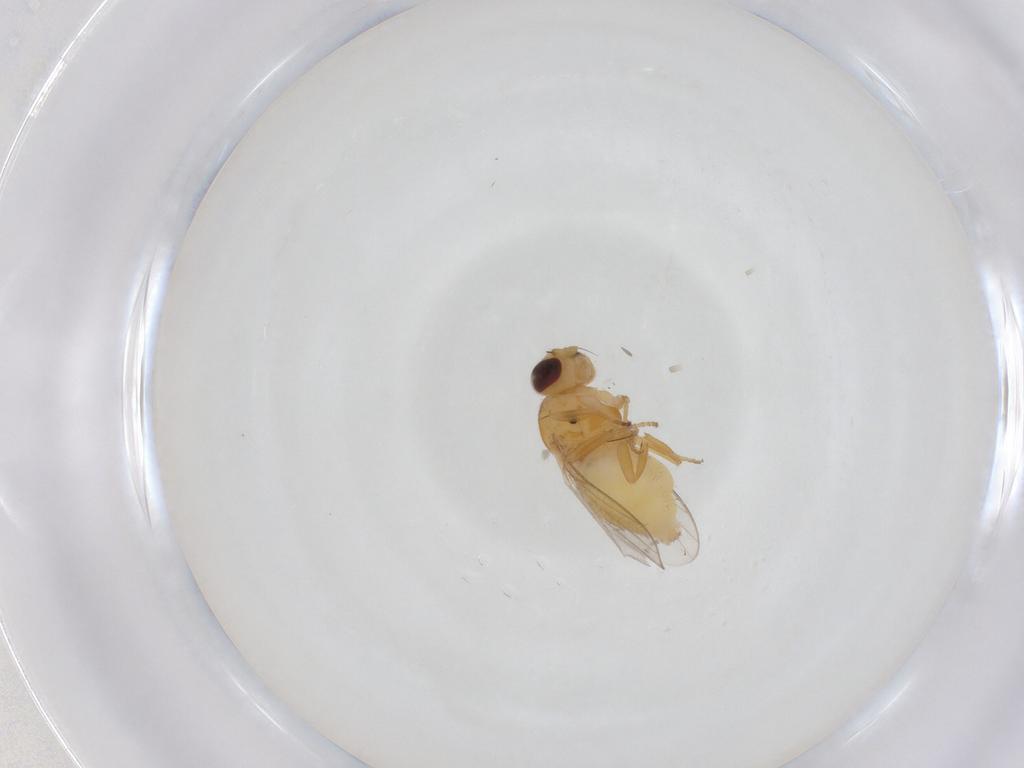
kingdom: Animalia
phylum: Arthropoda
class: Insecta
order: Diptera
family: Chloropidae
